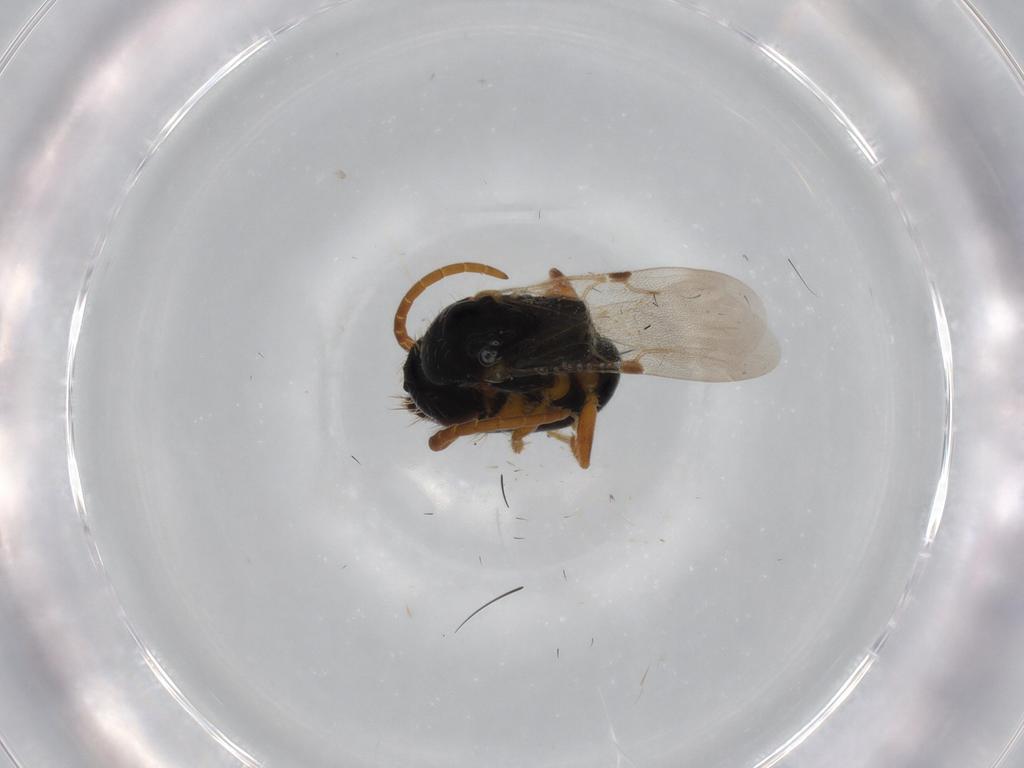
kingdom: Animalia
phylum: Arthropoda
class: Insecta
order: Hymenoptera
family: Bethylidae
